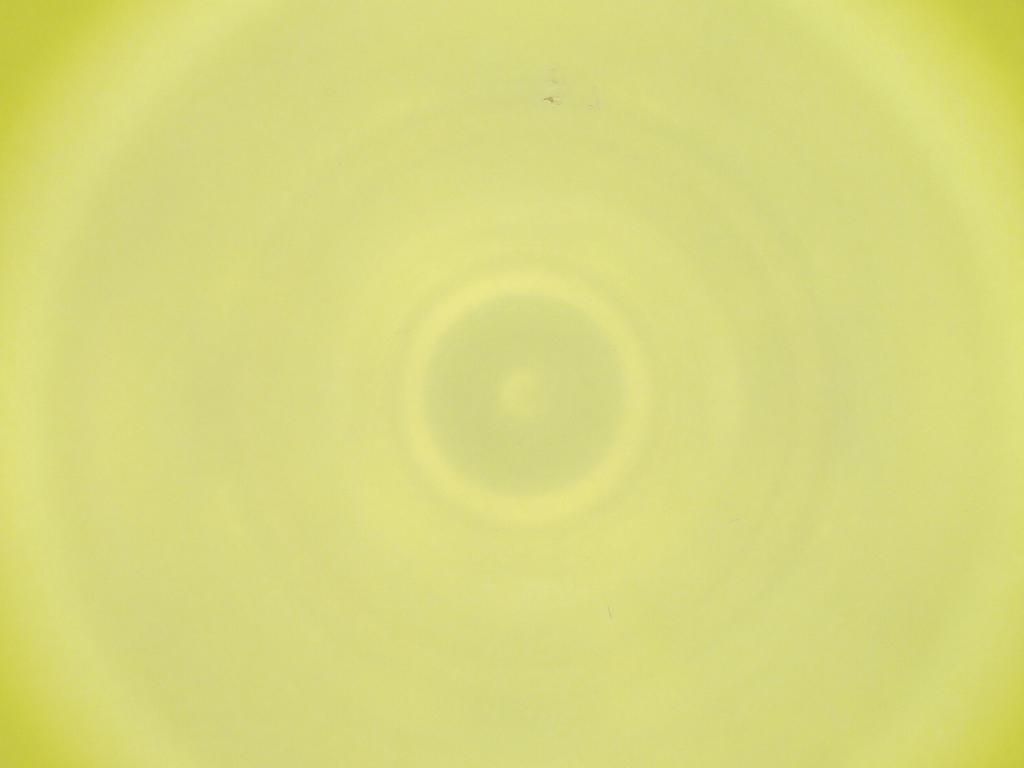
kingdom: Animalia
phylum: Arthropoda
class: Insecta
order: Diptera
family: Cecidomyiidae
